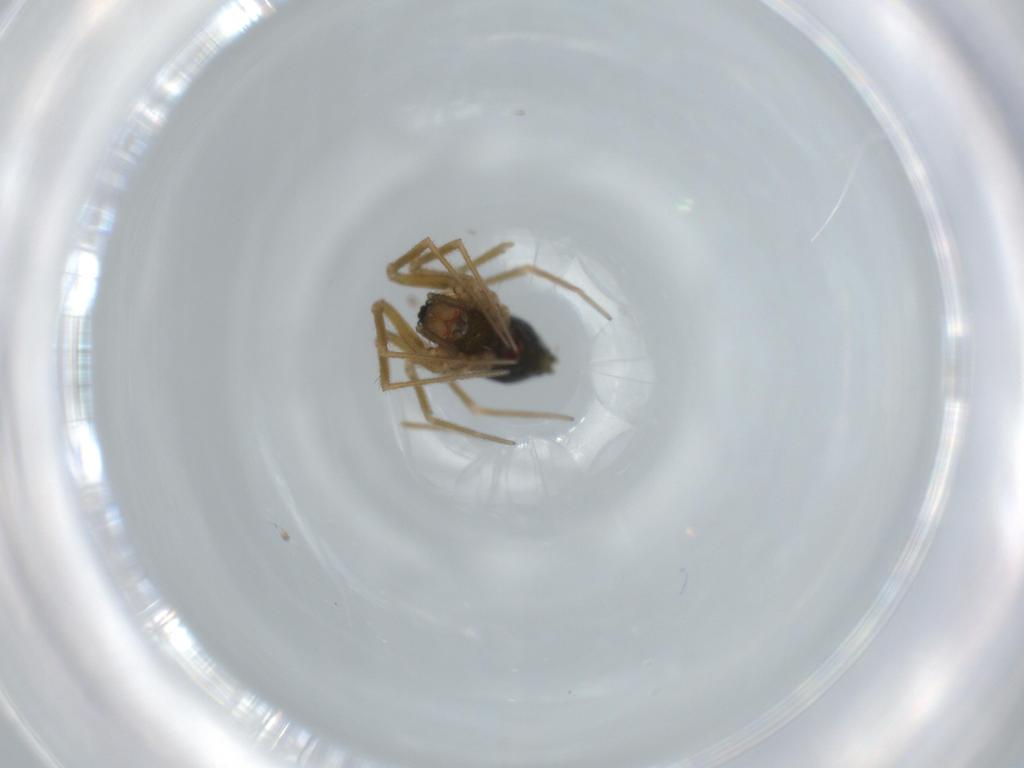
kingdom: Animalia
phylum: Arthropoda
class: Arachnida
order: Araneae
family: Linyphiidae
